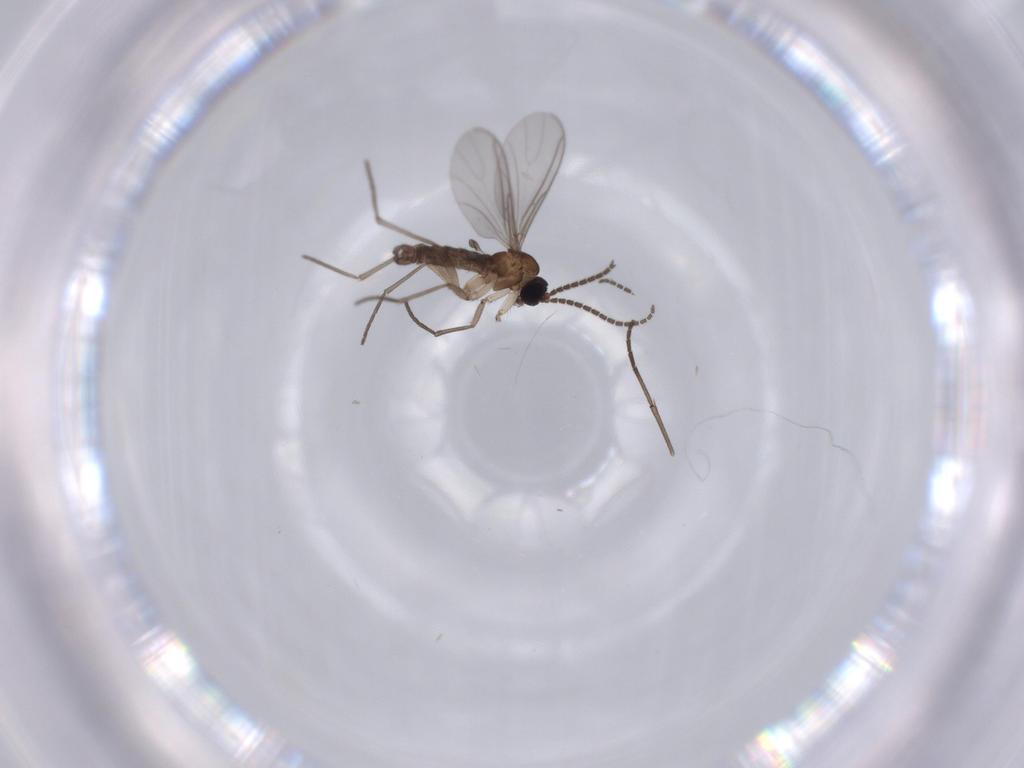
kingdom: Animalia
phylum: Arthropoda
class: Insecta
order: Diptera
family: Sciaridae
